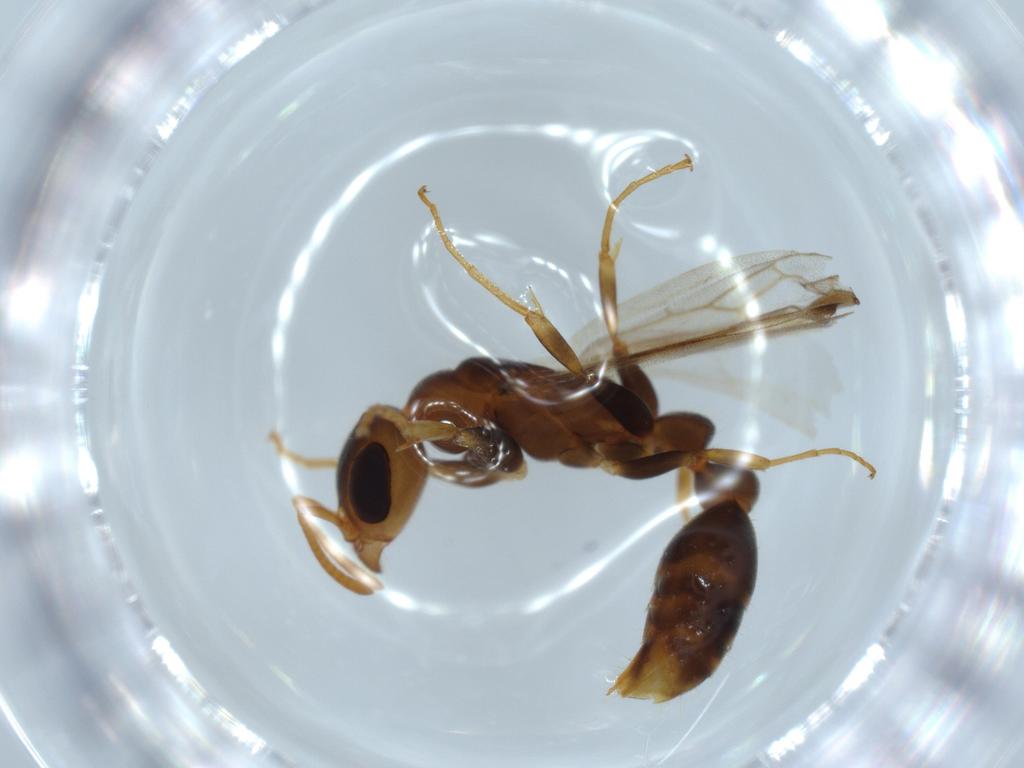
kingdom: Animalia
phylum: Arthropoda
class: Insecta
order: Hymenoptera
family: Formicidae
